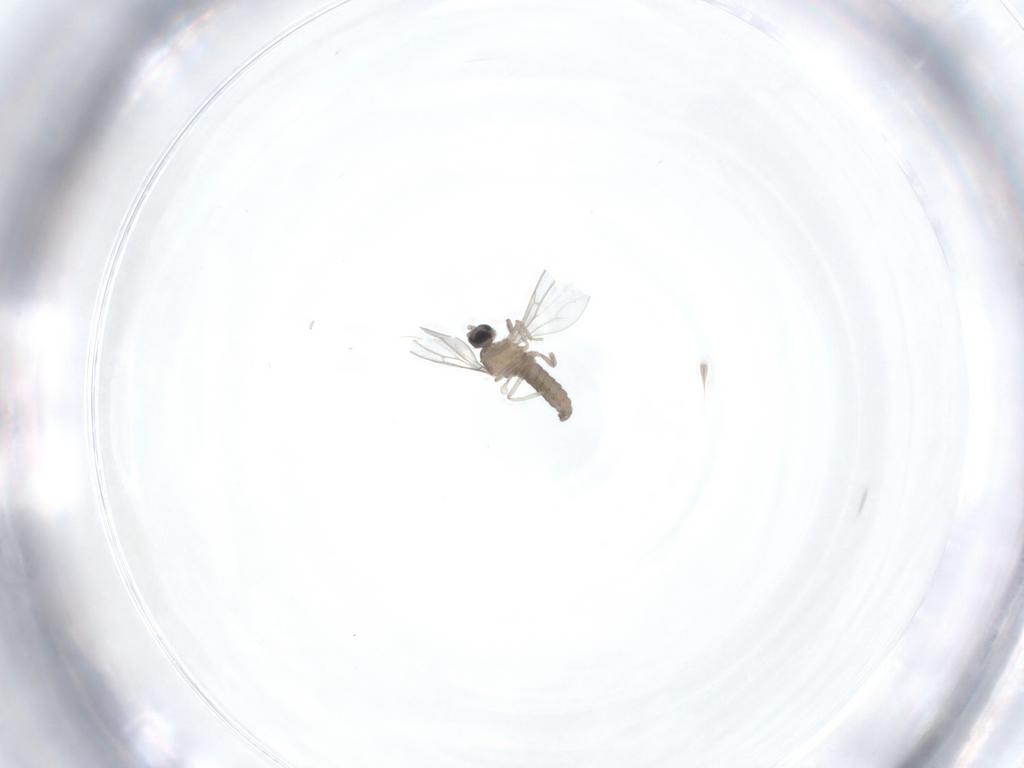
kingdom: Animalia
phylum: Arthropoda
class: Insecta
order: Diptera
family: Cecidomyiidae
